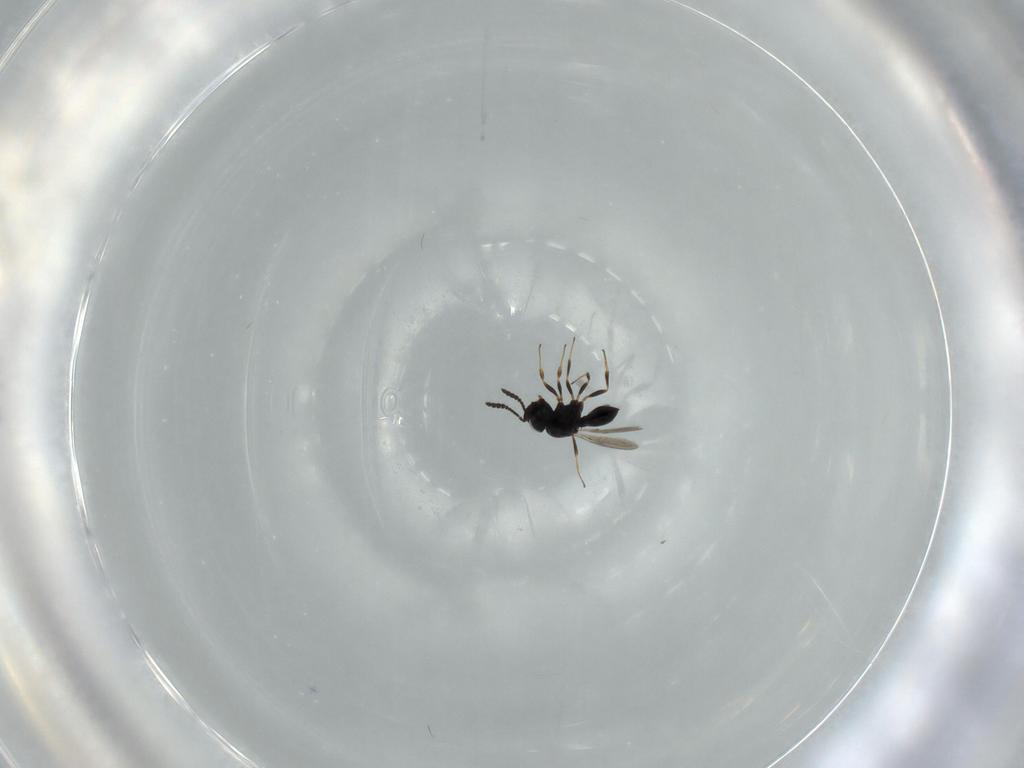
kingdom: Animalia
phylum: Arthropoda
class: Insecta
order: Hymenoptera
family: Scelionidae
